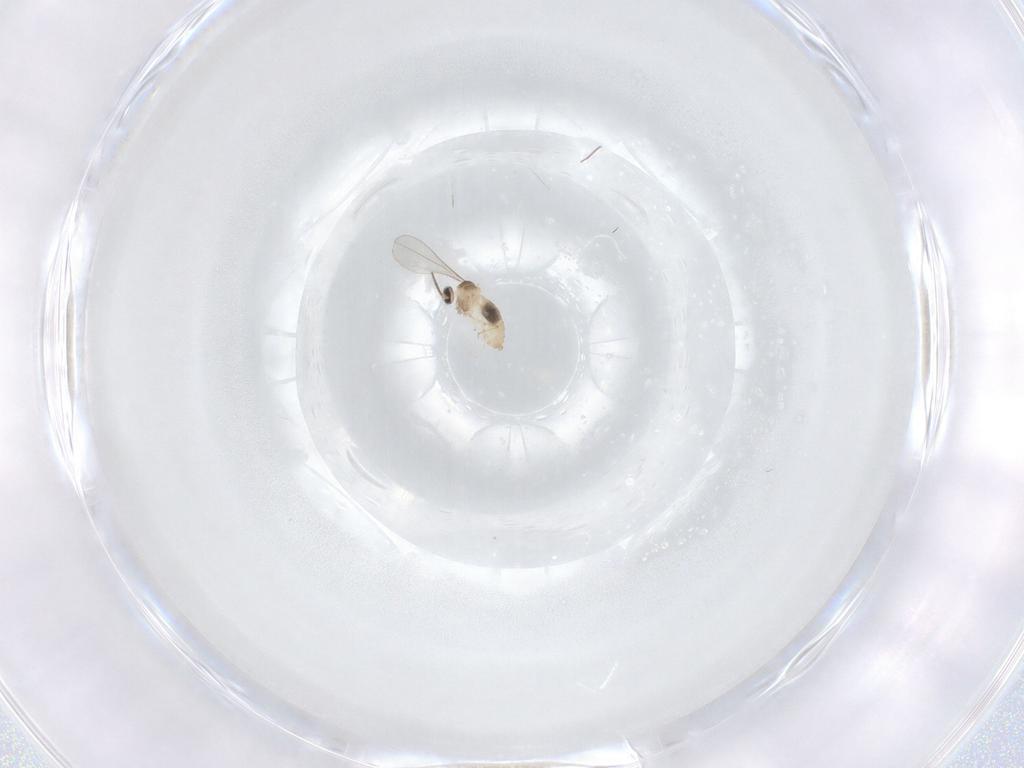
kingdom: Animalia
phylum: Arthropoda
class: Insecta
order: Diptera
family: Cecidomyiidae
